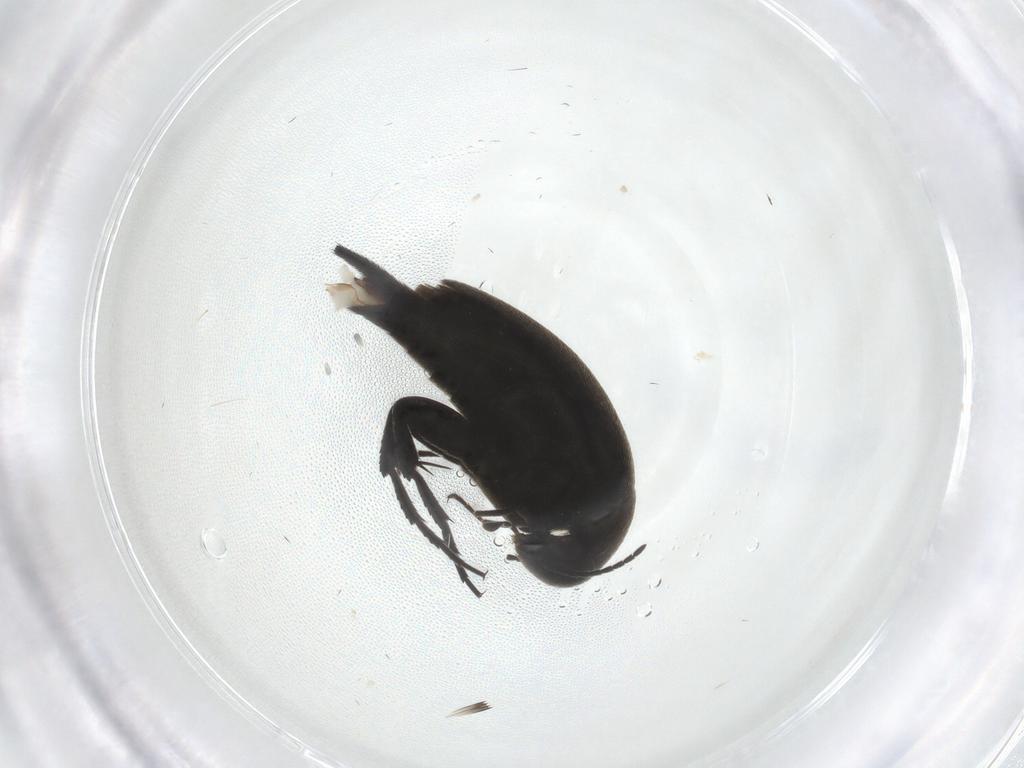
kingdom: Animalia
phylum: Arthropoda
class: Insecta
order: Coleoptera
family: Mordellidae
